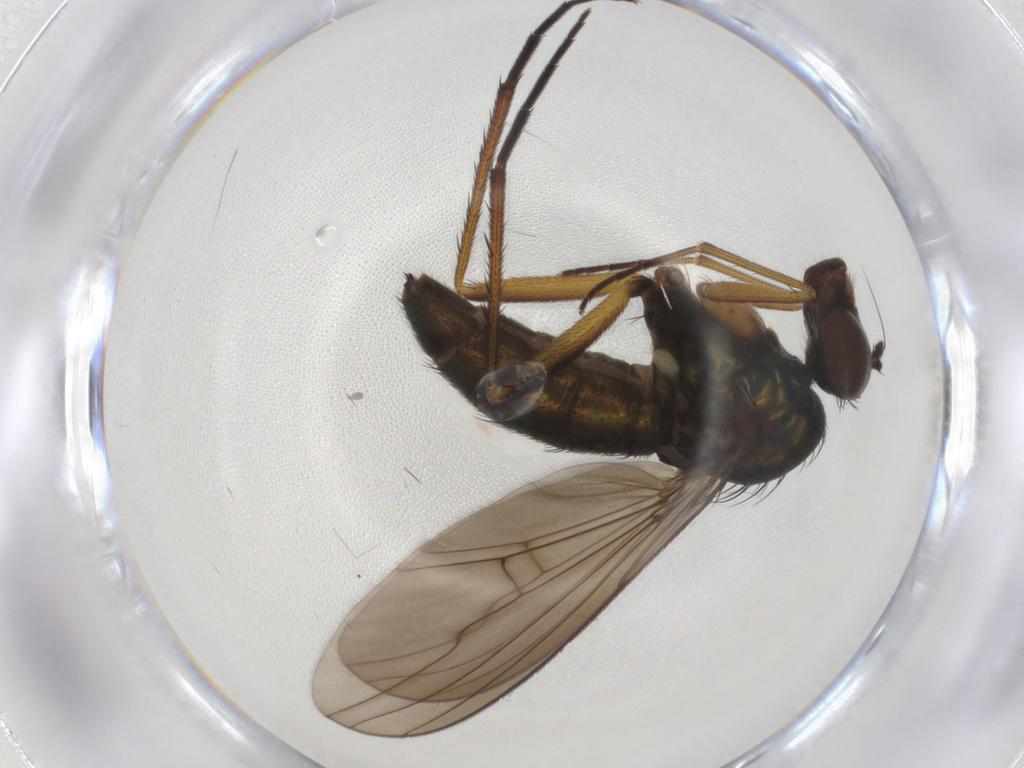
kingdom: Animalia
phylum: Arthropoda
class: Insecta
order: Diptera
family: Dolichopodidae
